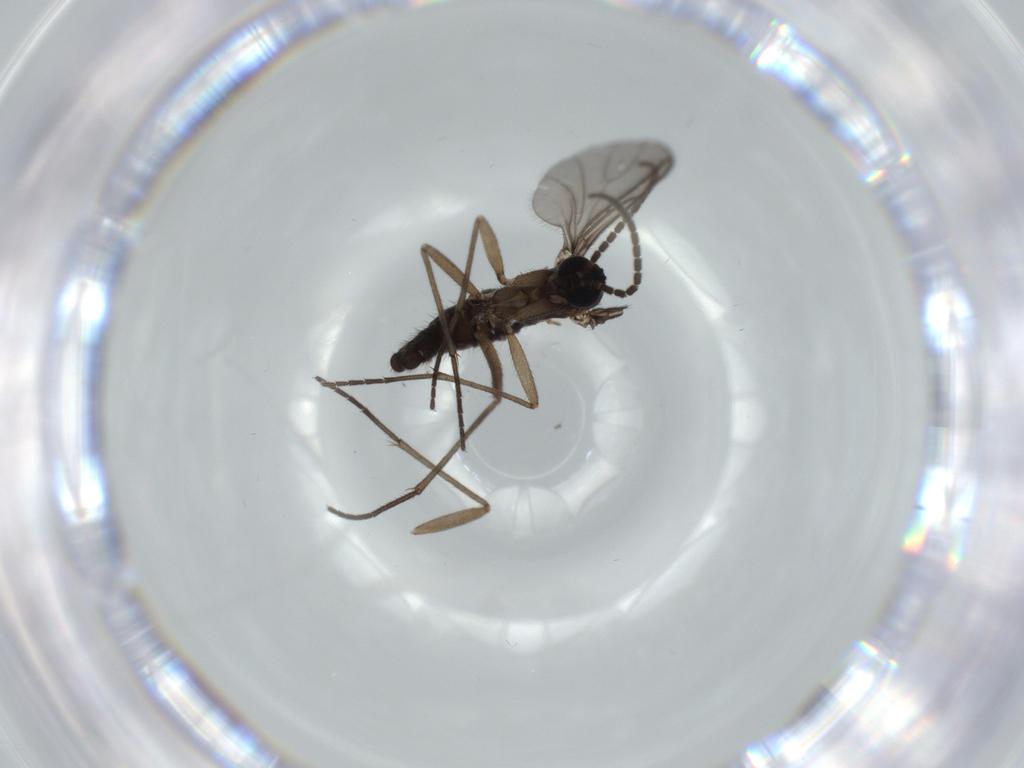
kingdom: Animalia
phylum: Arthropoda
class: Insecta
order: Diptera
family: Sciaridae
